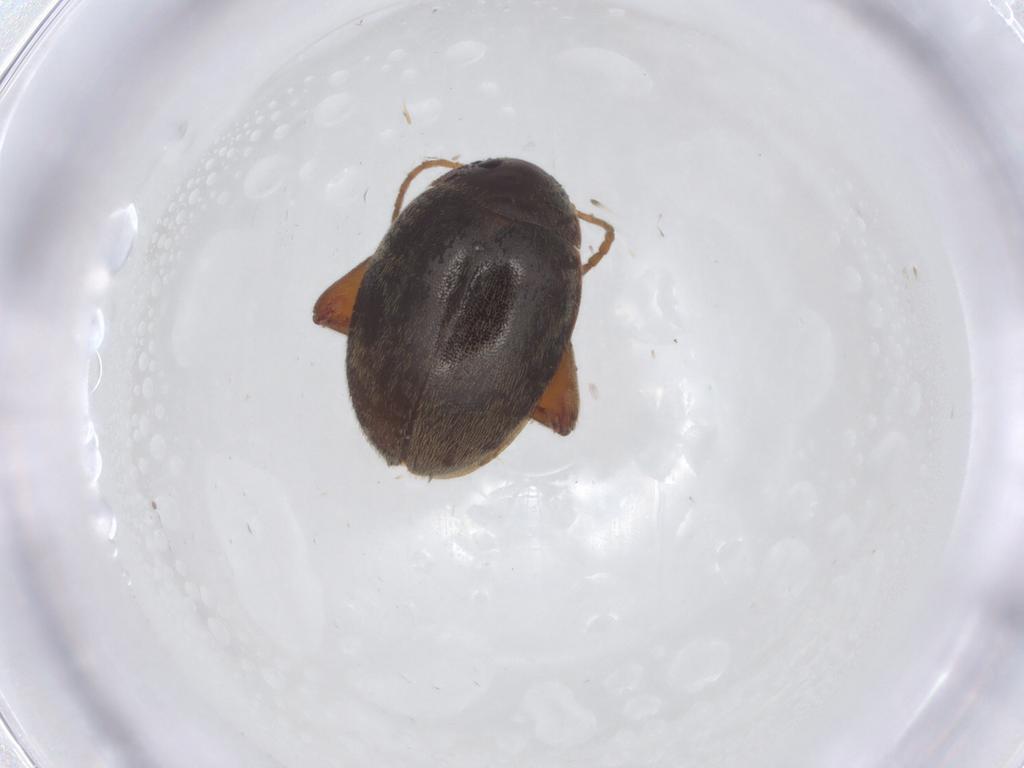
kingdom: Animalia
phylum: Arthropoda
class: Insecta
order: Coleoptera
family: Scirtidae
